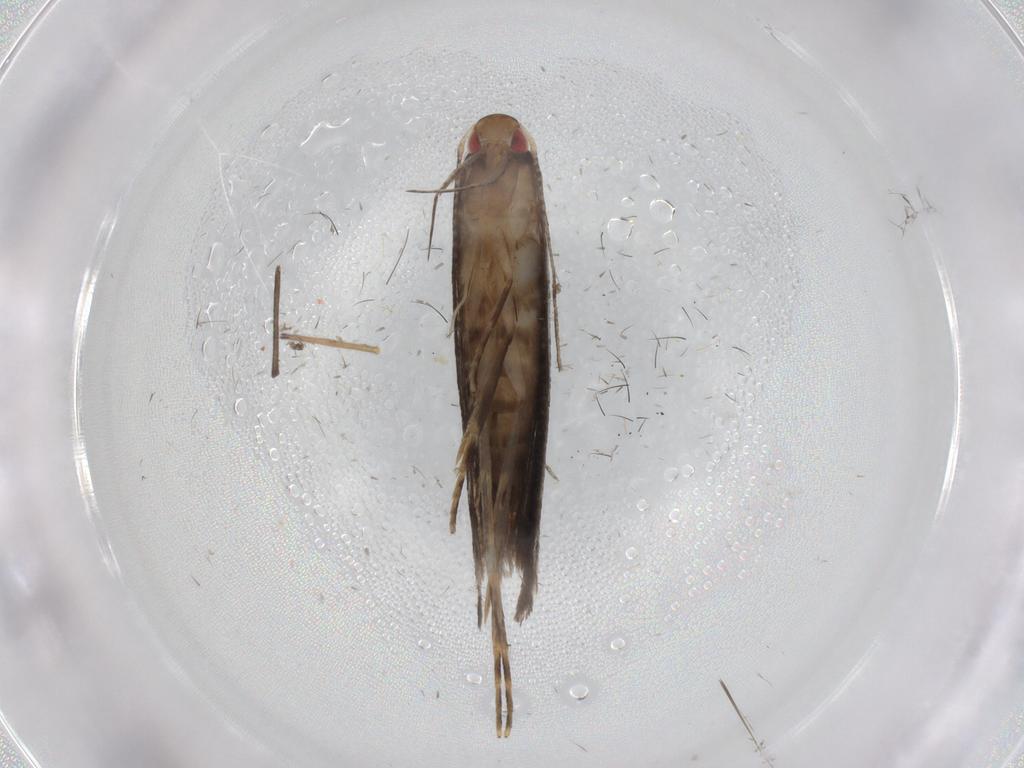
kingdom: Animalia
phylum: Arthropoda
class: Insecta
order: Lepidoptera
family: Gelechiidae
